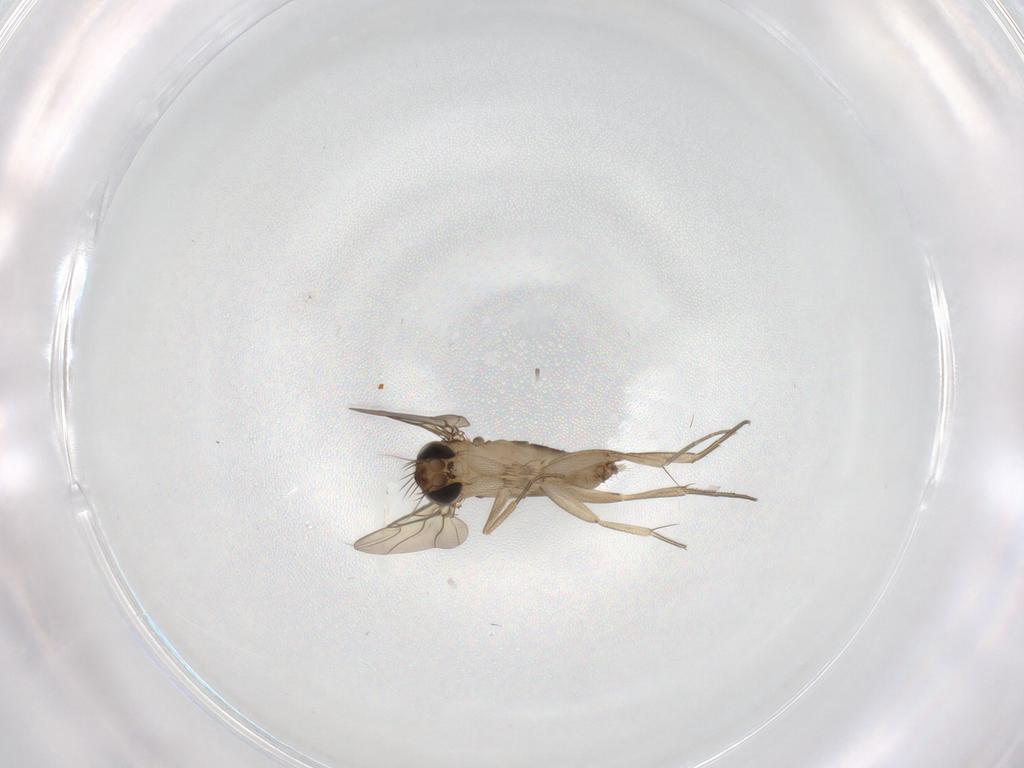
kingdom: Animalia
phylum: Arthropoda
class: Insecta
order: Diptera
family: Phoridae
